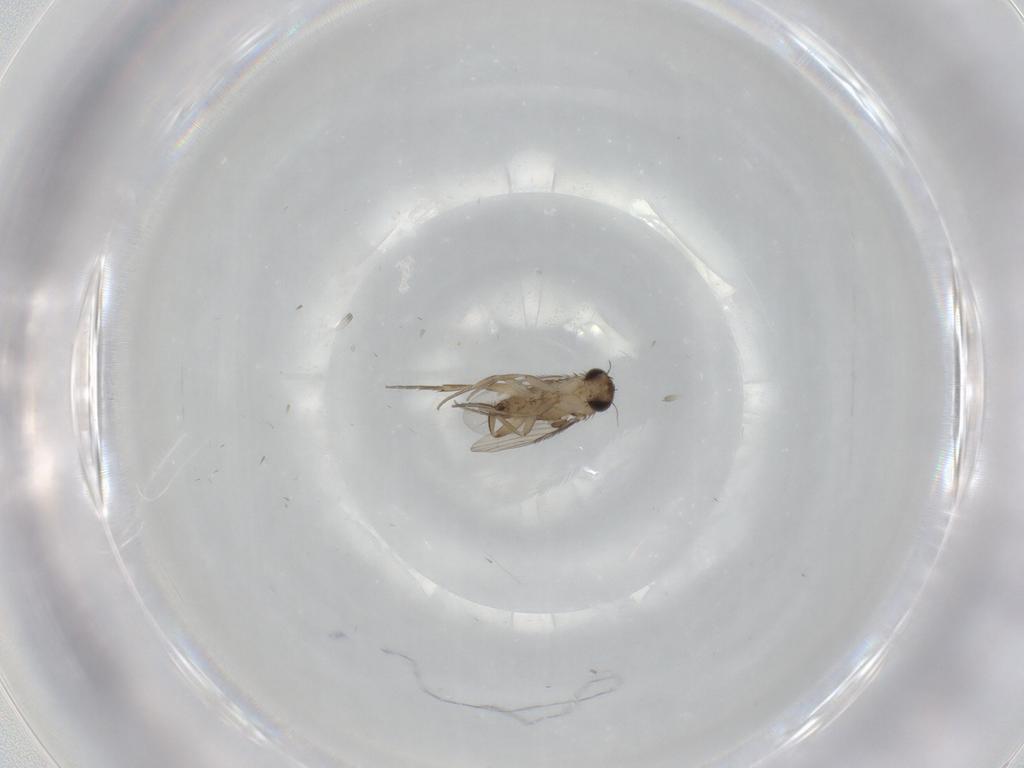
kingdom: Animalia
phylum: Arthropoda
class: Insecta
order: Diptera
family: Phoridae
